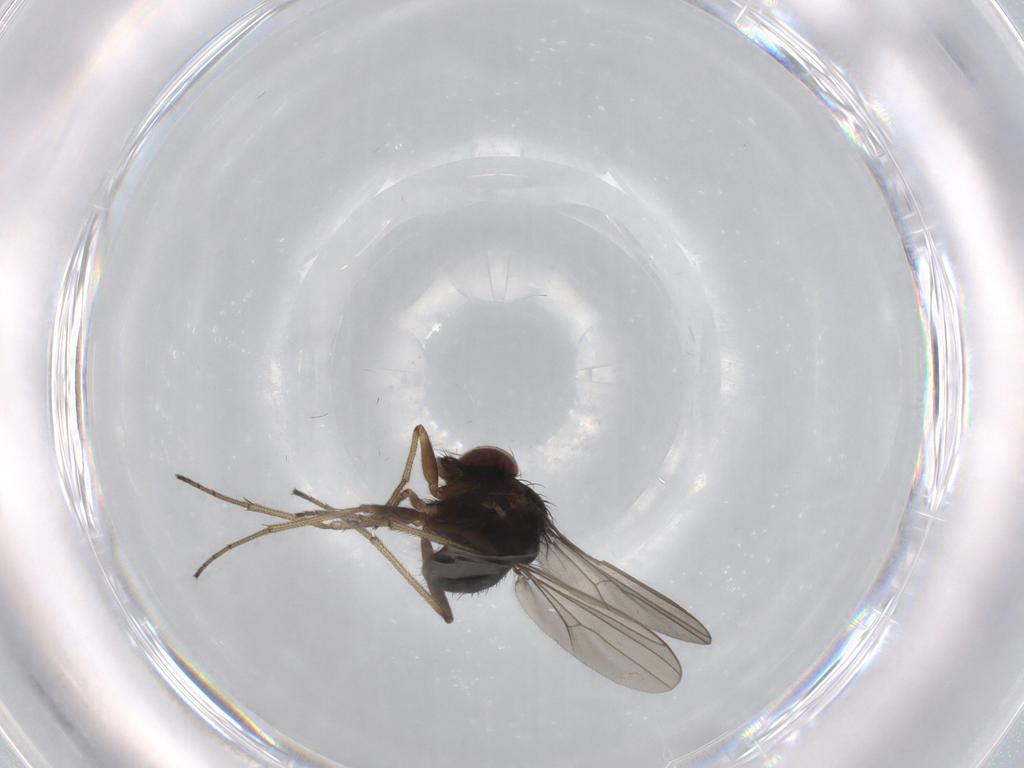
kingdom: Animalia
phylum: Arthropoda
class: Insecta
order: Diptera
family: Dolichopodidae
